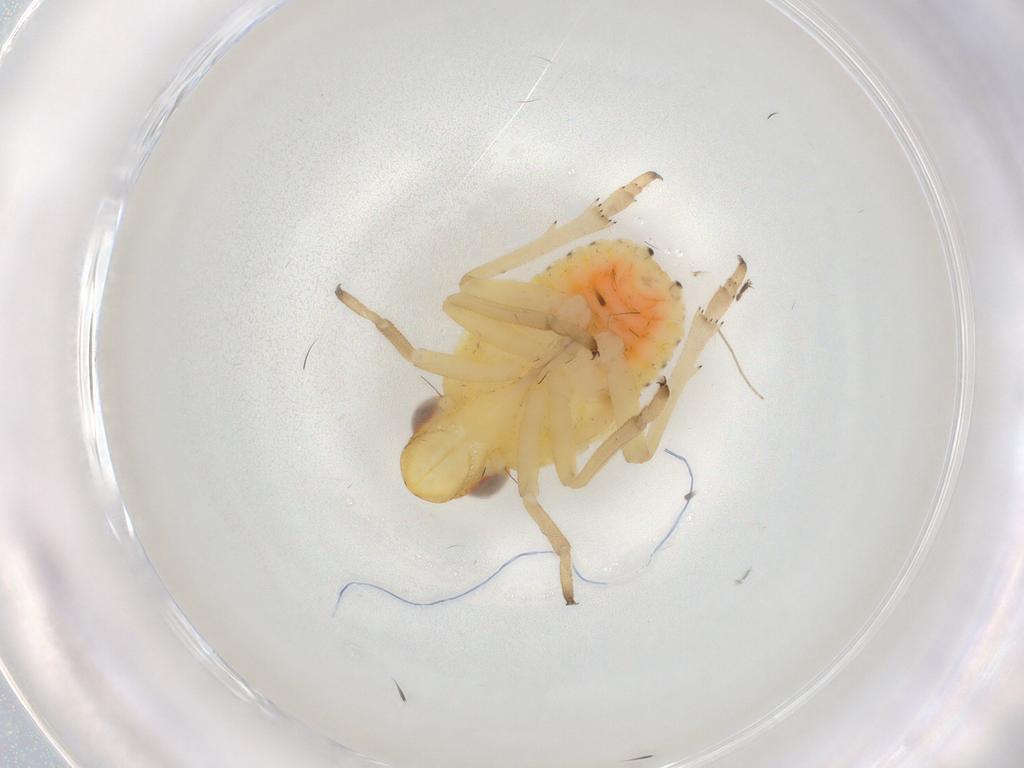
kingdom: Animalia
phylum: Arthropoda
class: Insecta
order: Hemiptera
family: Caliscelidae
